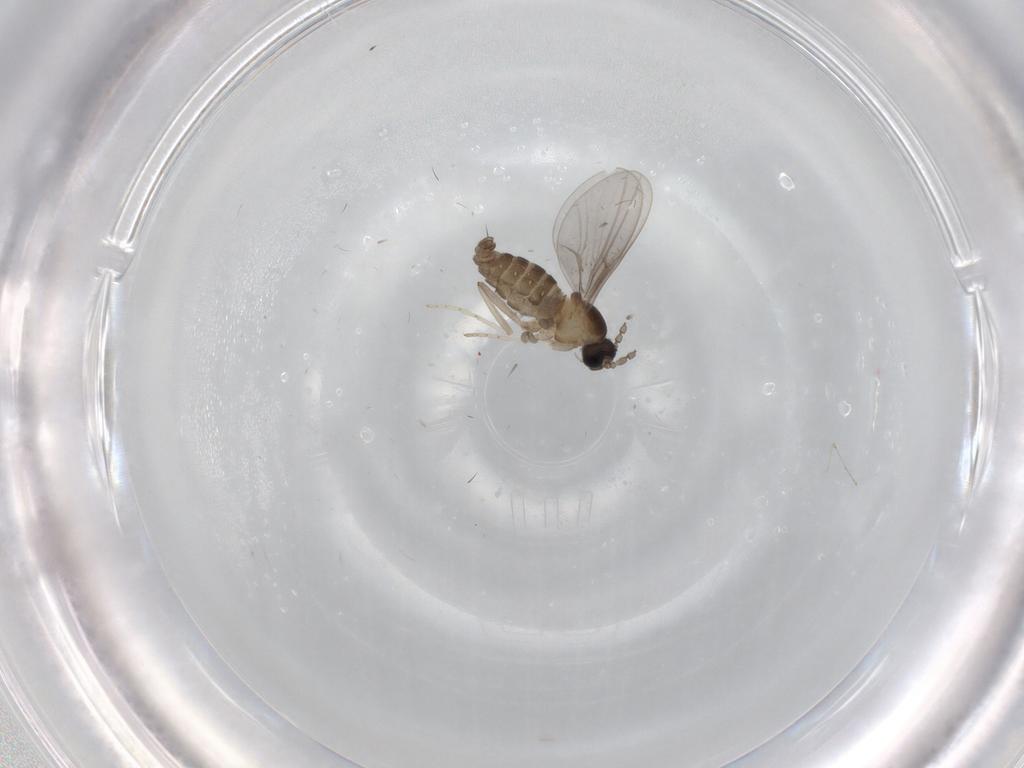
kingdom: Animalia
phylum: Arthropoda
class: Insecta
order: Diptera
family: Cecidomyiidae
